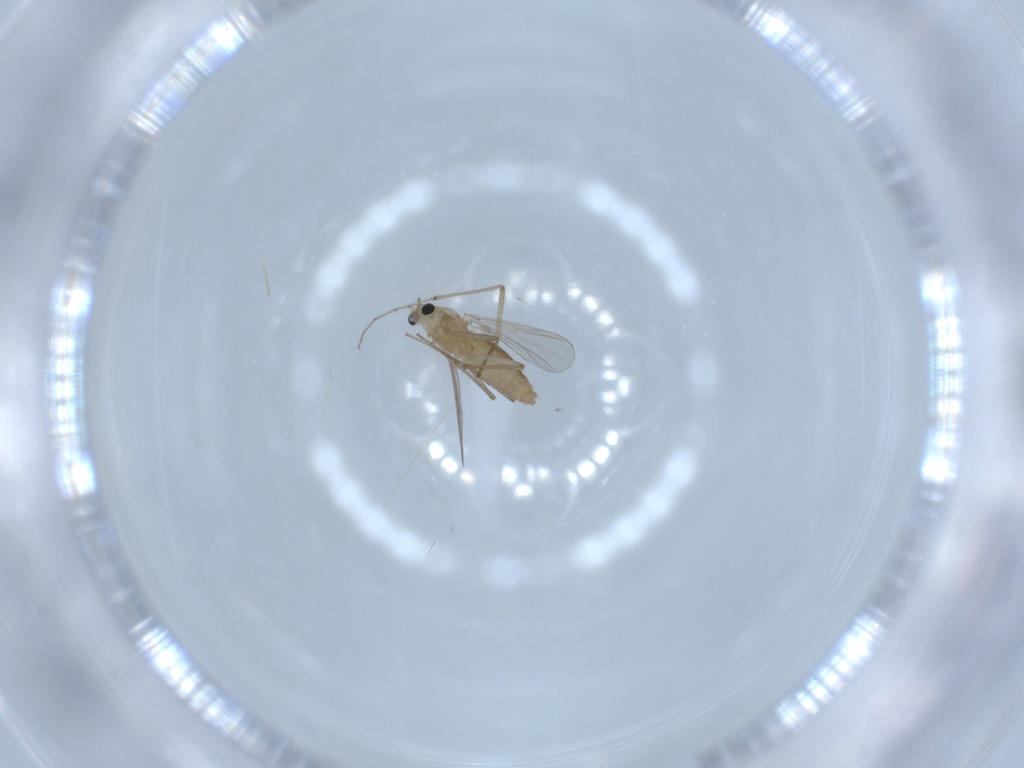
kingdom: Animalia
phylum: Arthropoda
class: Insecta
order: Diptera
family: Chironomidae
